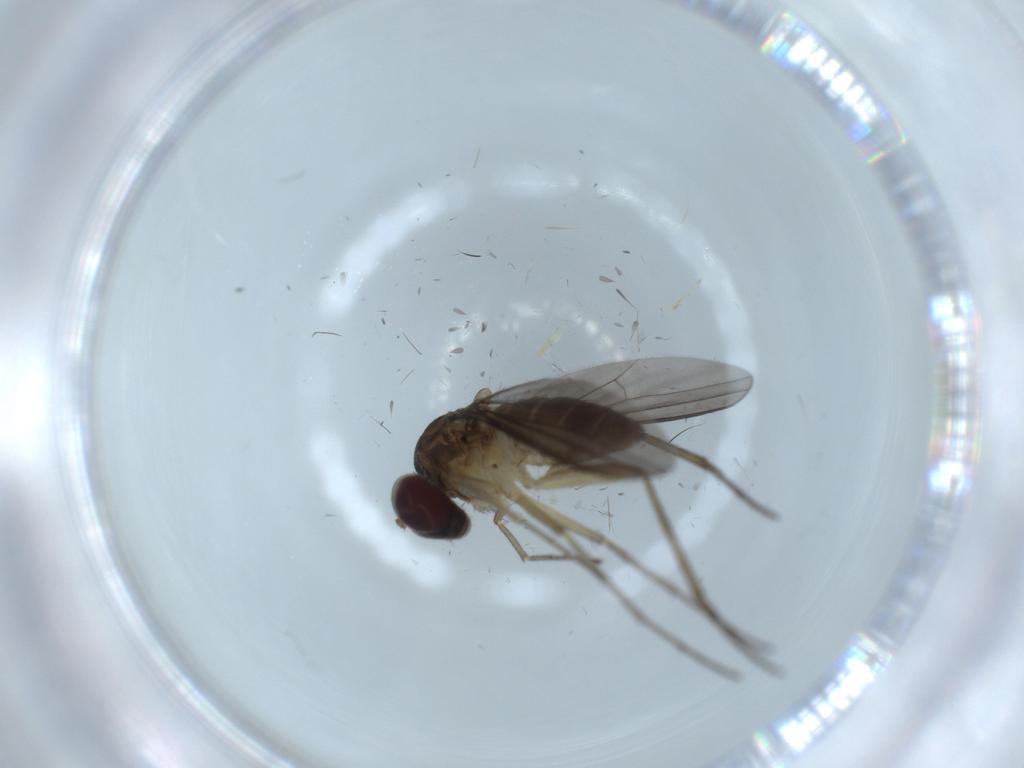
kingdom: Animalia
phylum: Arthropoda
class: Insecta
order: Diptera
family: Dolichopodidae
